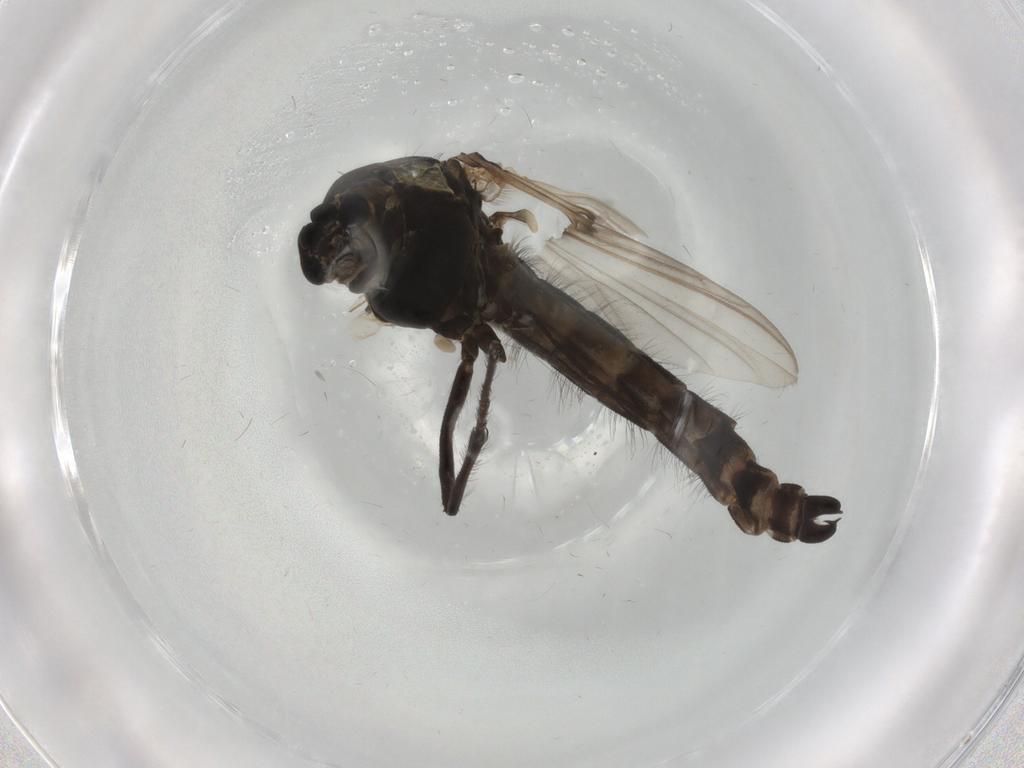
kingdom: Animalia
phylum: Arthropoda
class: Insecta
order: Diptera
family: Chironomidae
